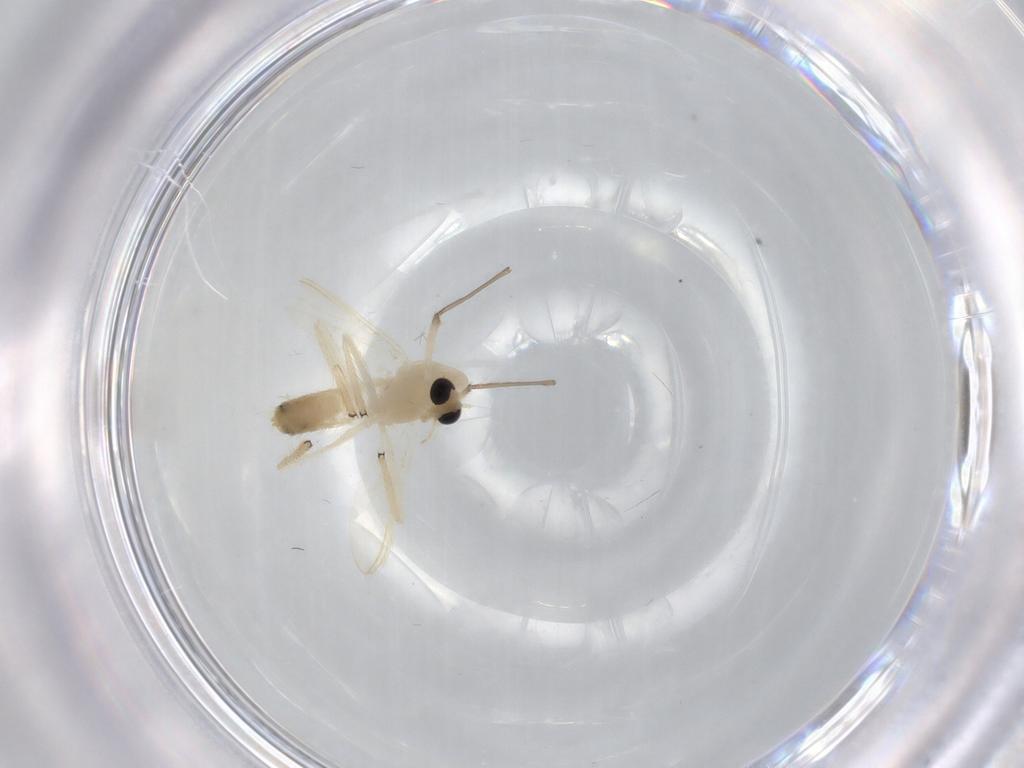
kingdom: Animalia
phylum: Arthropoda
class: Insecta
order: Diptera
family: Chironomidae
